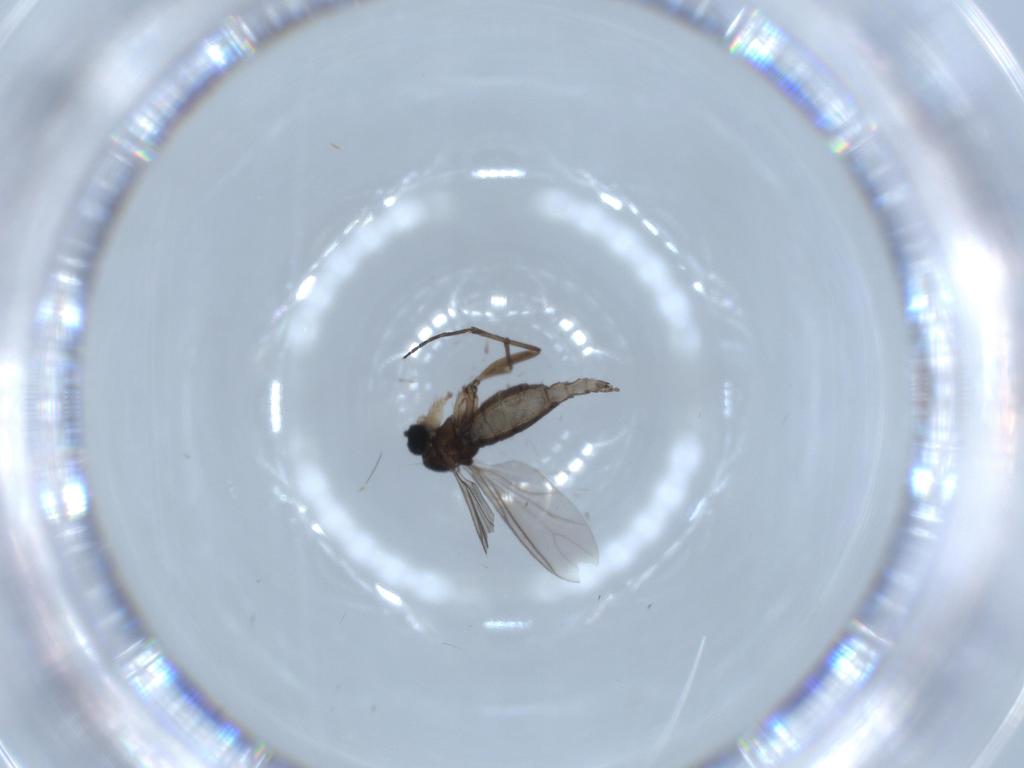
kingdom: Animalia
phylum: Arthropoda
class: Insecta
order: Diptera
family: Sciaridae
